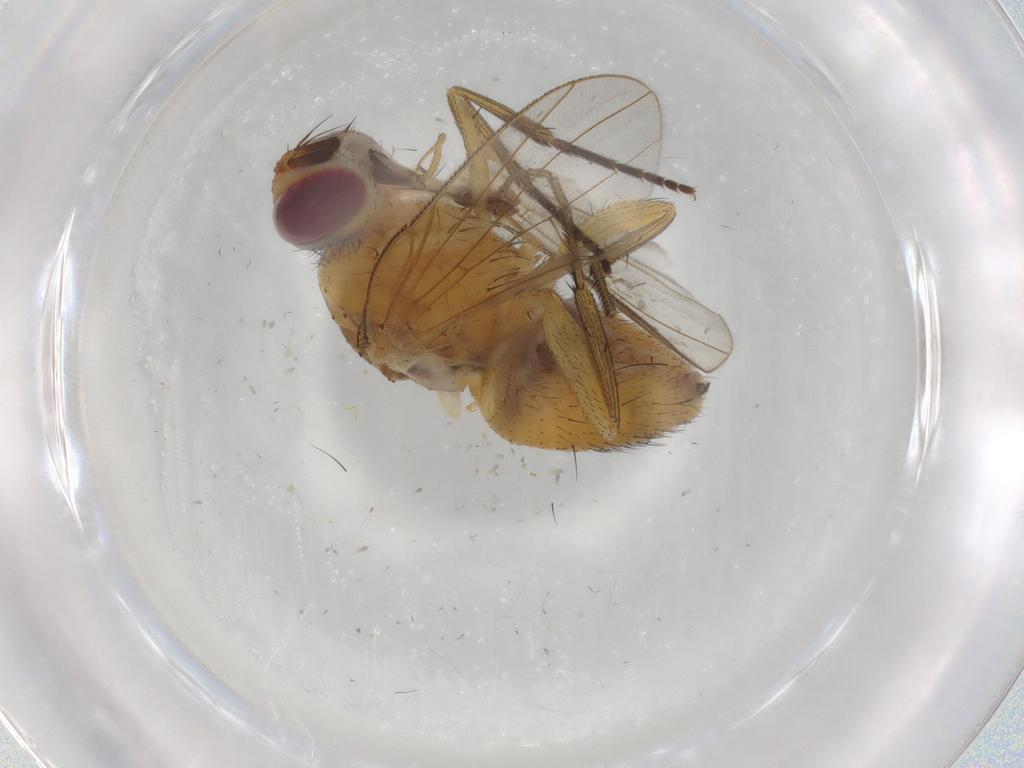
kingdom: Animalia
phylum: Arthropoda
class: Insecta
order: Diptera
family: Muscidae
